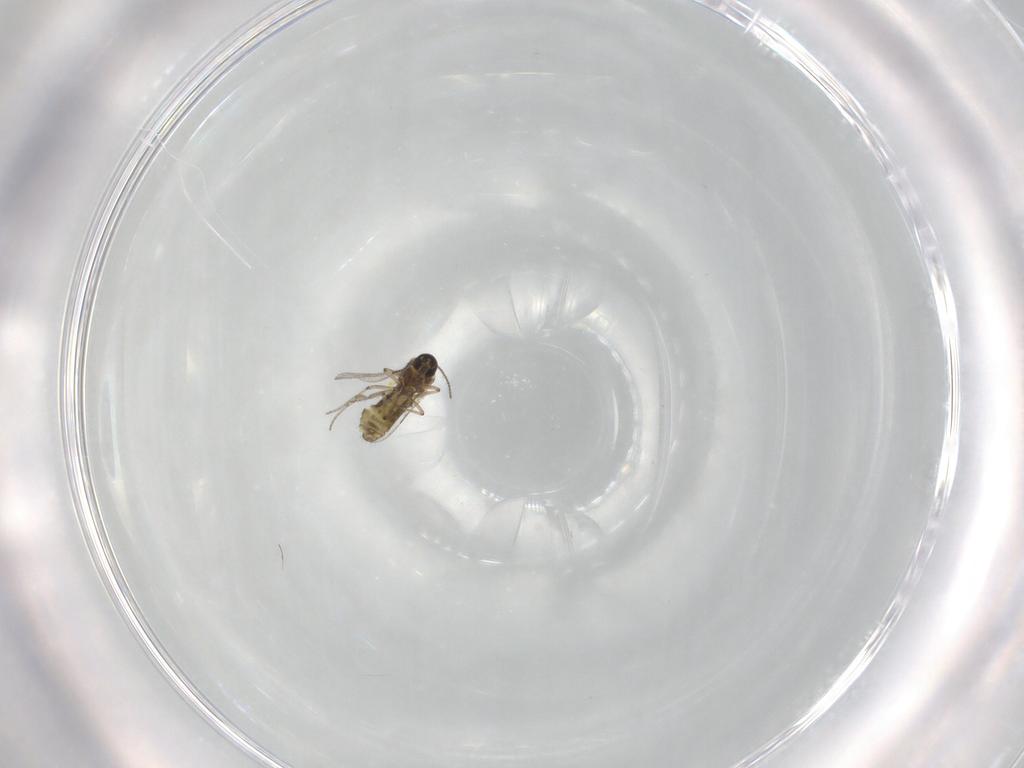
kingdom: Animalia
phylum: Arthropoda
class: Insecta
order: Diptera
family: Ceratopogonidae
